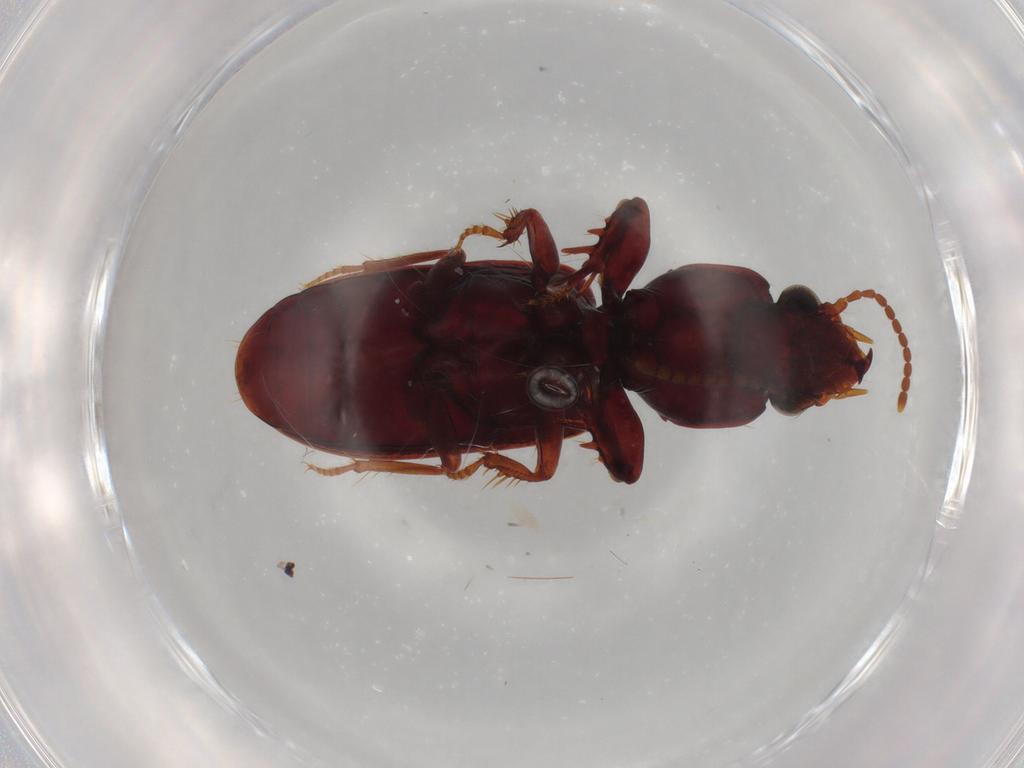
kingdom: Animalia
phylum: Arthropoda
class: Insecta
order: Coleoptera
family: Carabidae
